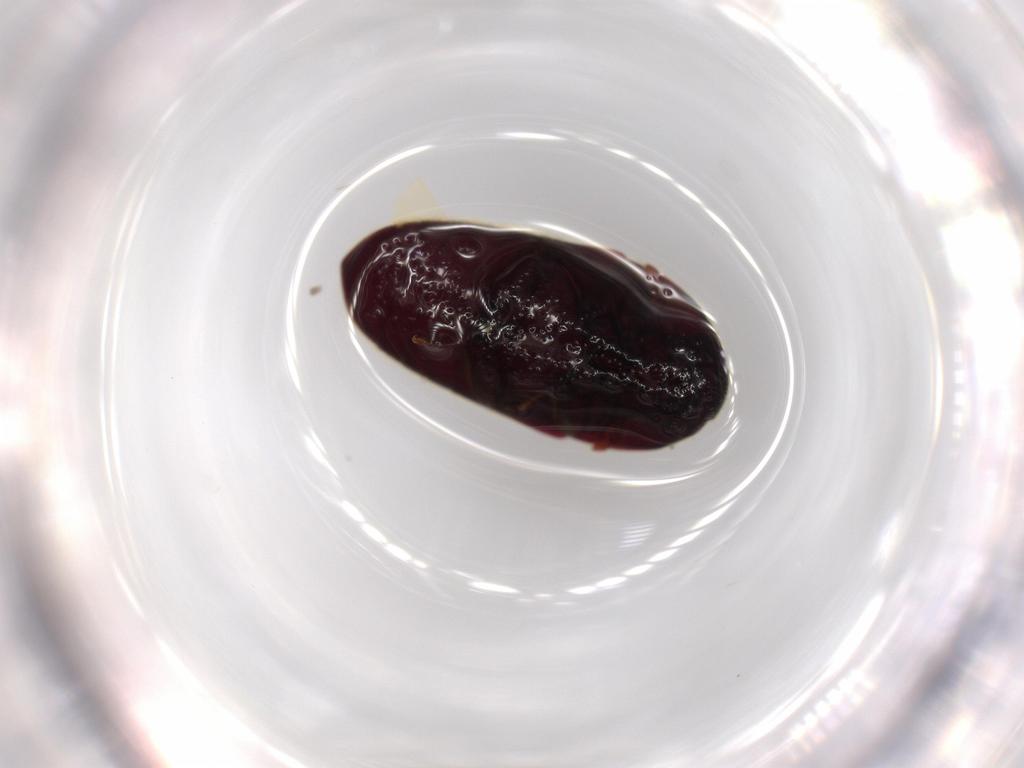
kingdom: Animalia
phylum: Arthropoda
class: Insecta
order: Coleoptera
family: Throscidae
